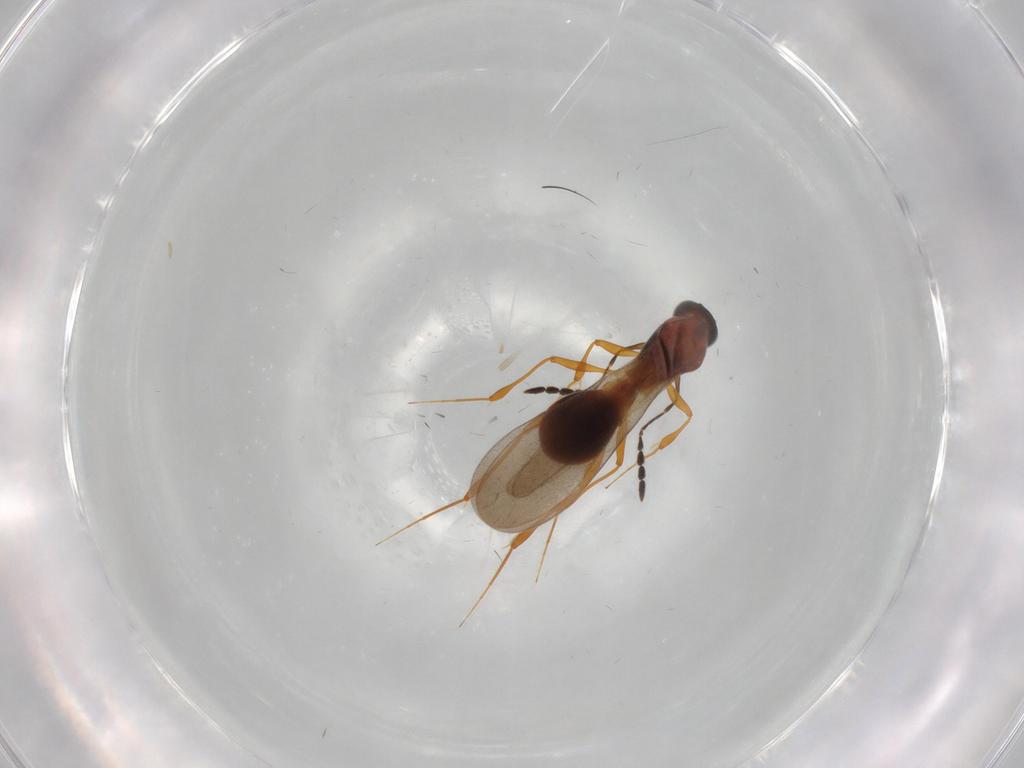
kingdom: Animalia
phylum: Arthropoda
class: Insecta
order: Hymenoptera
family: Platygastridae
